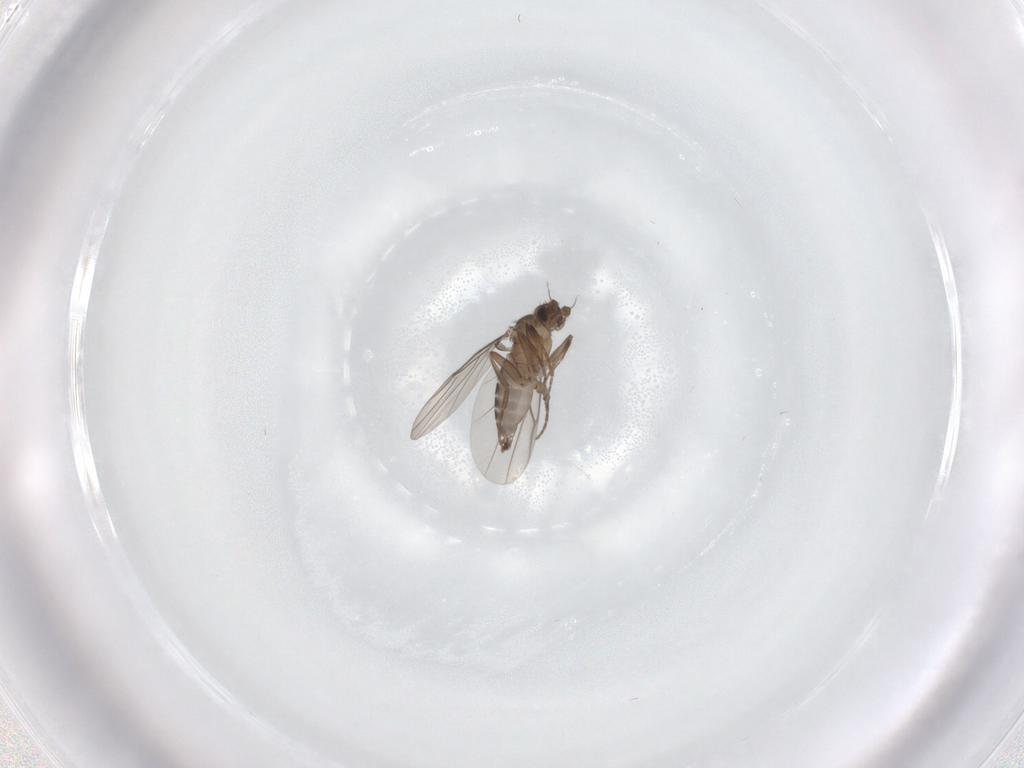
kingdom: Animalia
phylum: Arthropoda
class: Insecta
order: Diptera
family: Phoridae
